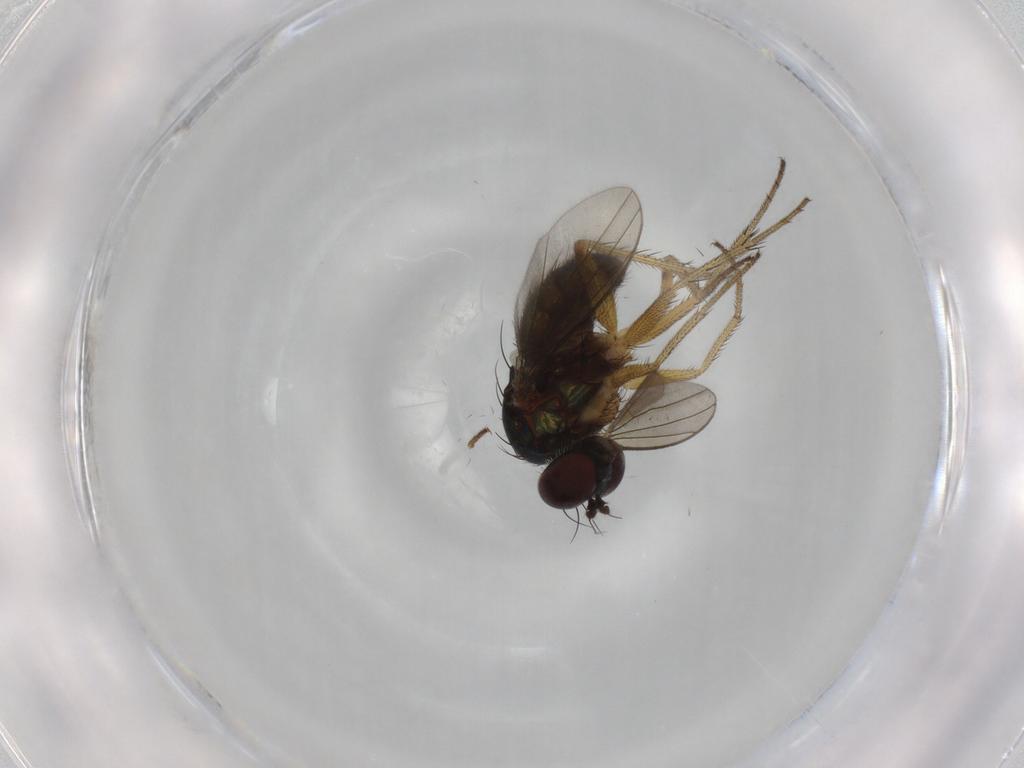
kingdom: Animalia
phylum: Arthropoda
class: Insecta
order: Diptera
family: Dolichopodidae
